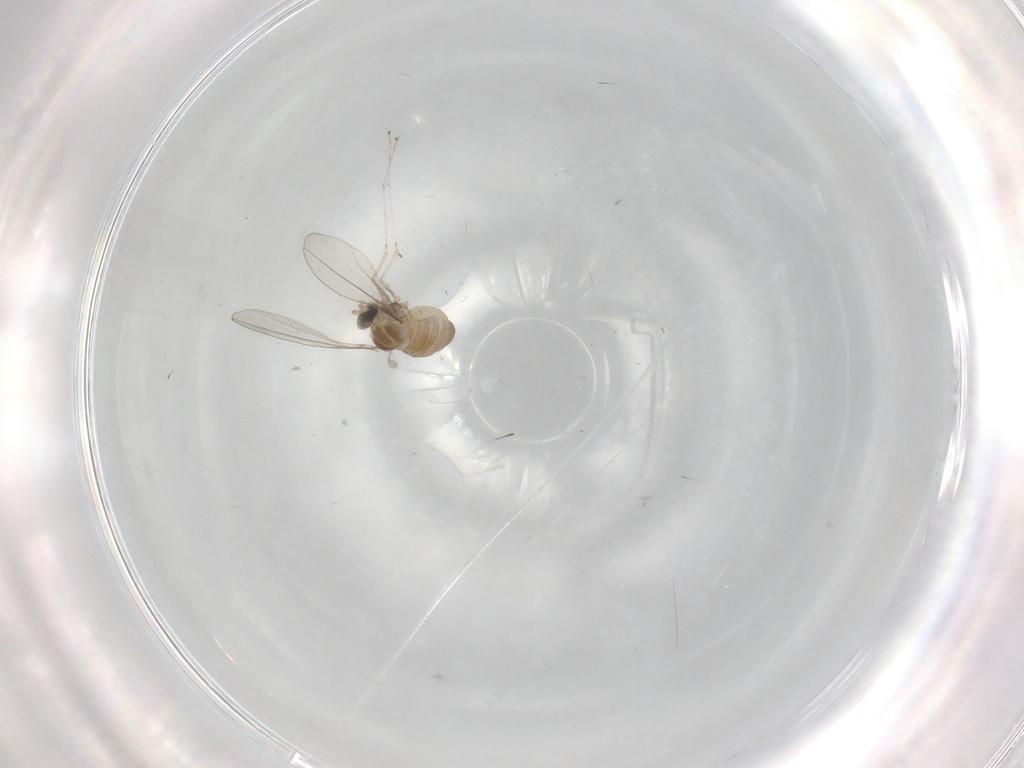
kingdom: Animalia
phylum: Arthropoda
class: Insecta
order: Diptera
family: Cecidomyiidae
